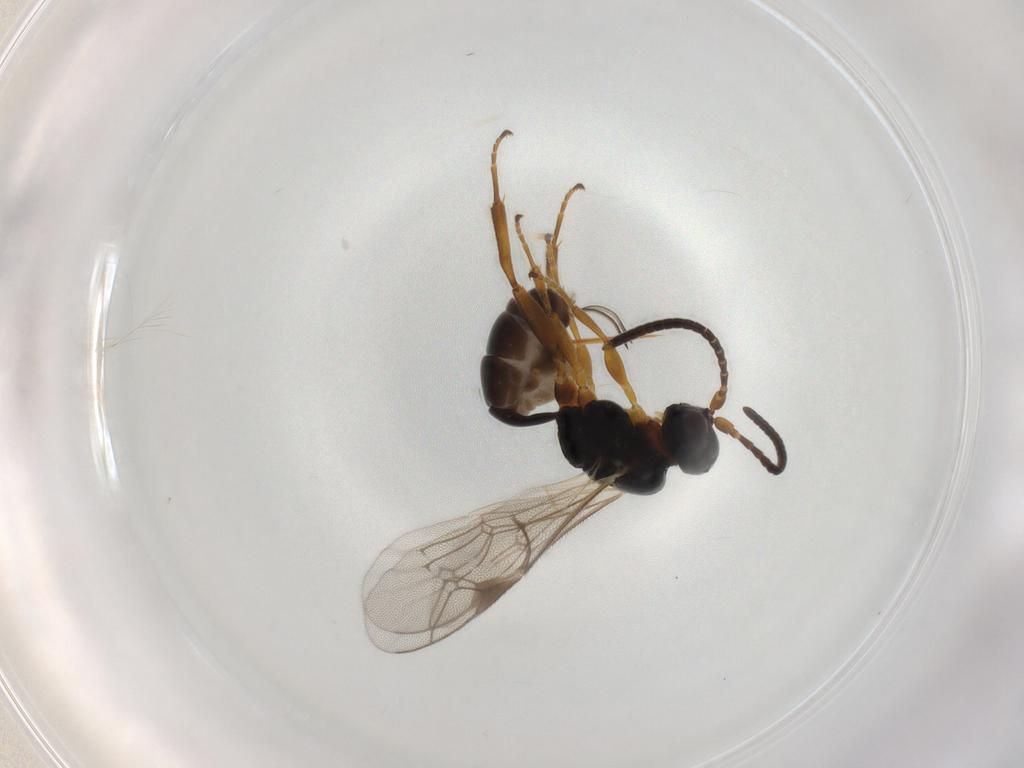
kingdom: Animalia
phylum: Arthropoda
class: Insecta
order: Hymenoptera
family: Ichneumonidae
